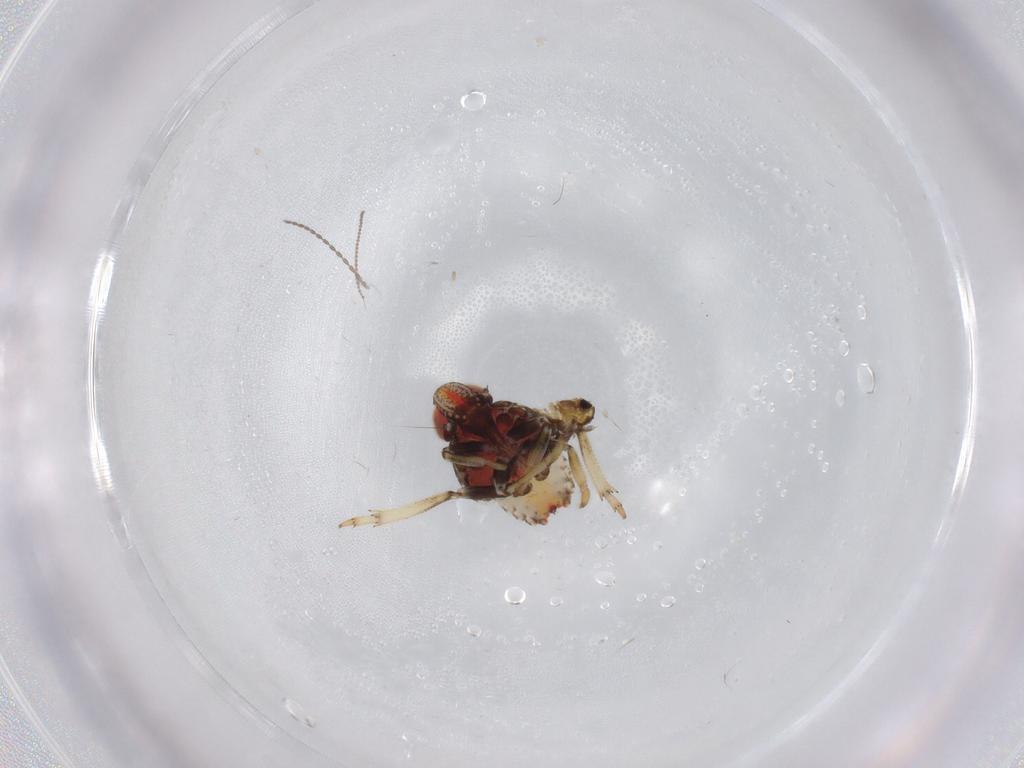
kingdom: Animalia
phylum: Arthropoda
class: Insecta
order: Hemiptera
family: Issidae
